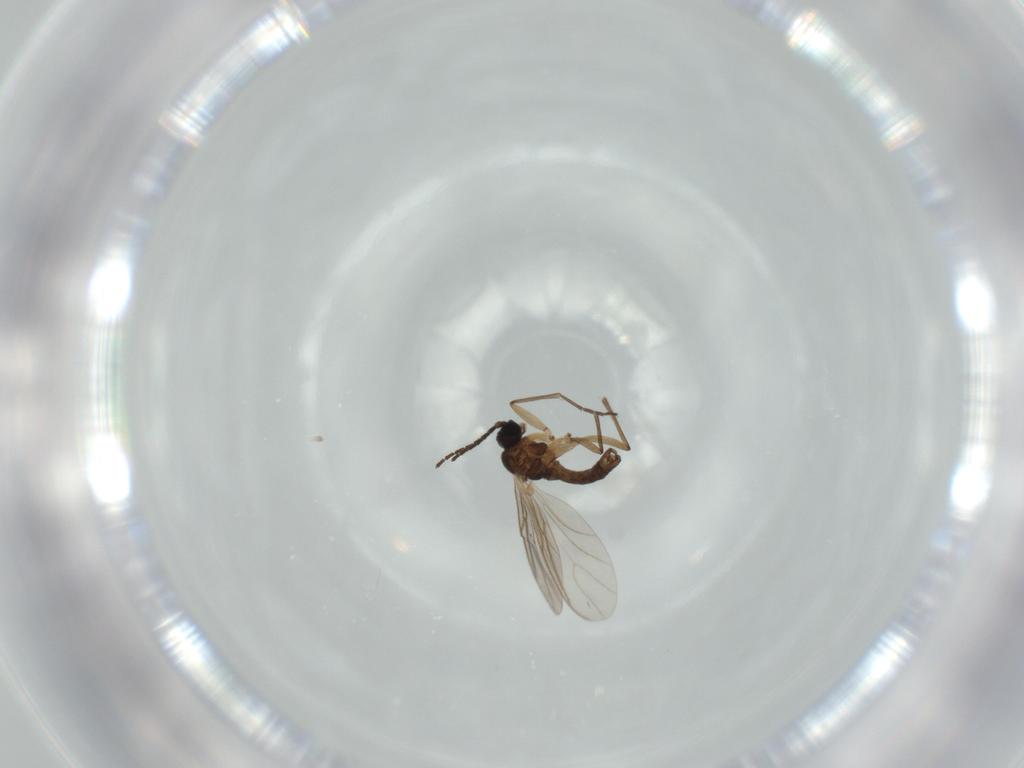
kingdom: Animalia
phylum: Arthropoda
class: Insecta
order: Diptera
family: Sciaridae
